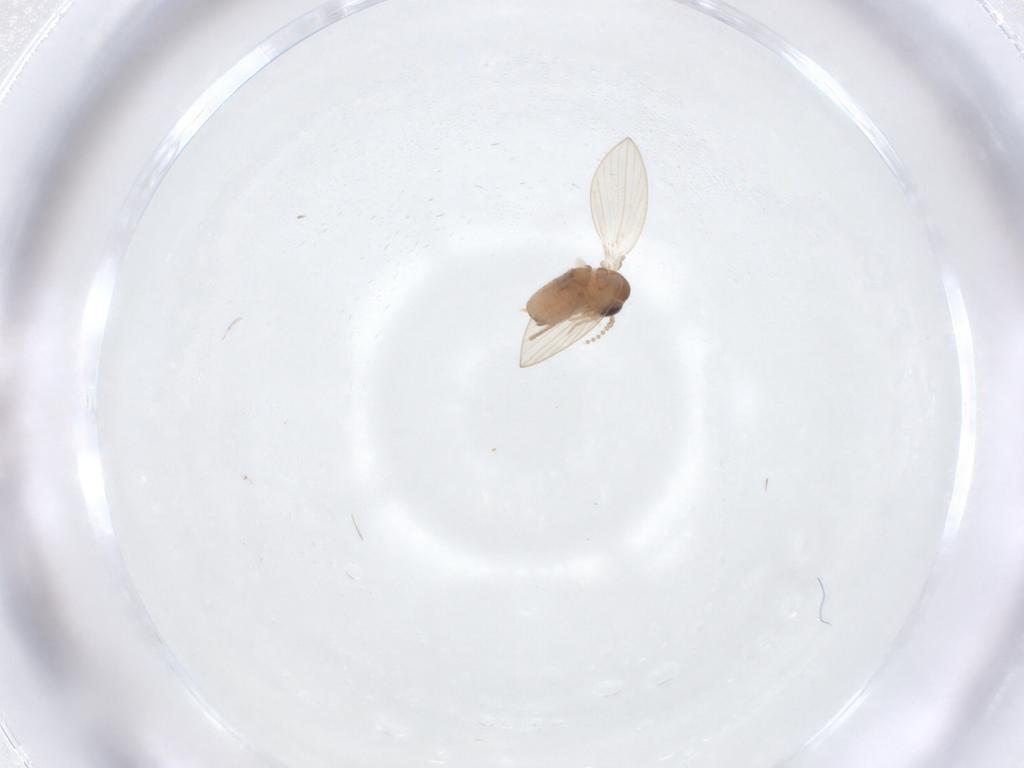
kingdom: Animalia
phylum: Arthropoda
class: Insecta
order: Diptera
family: Psychodidae
